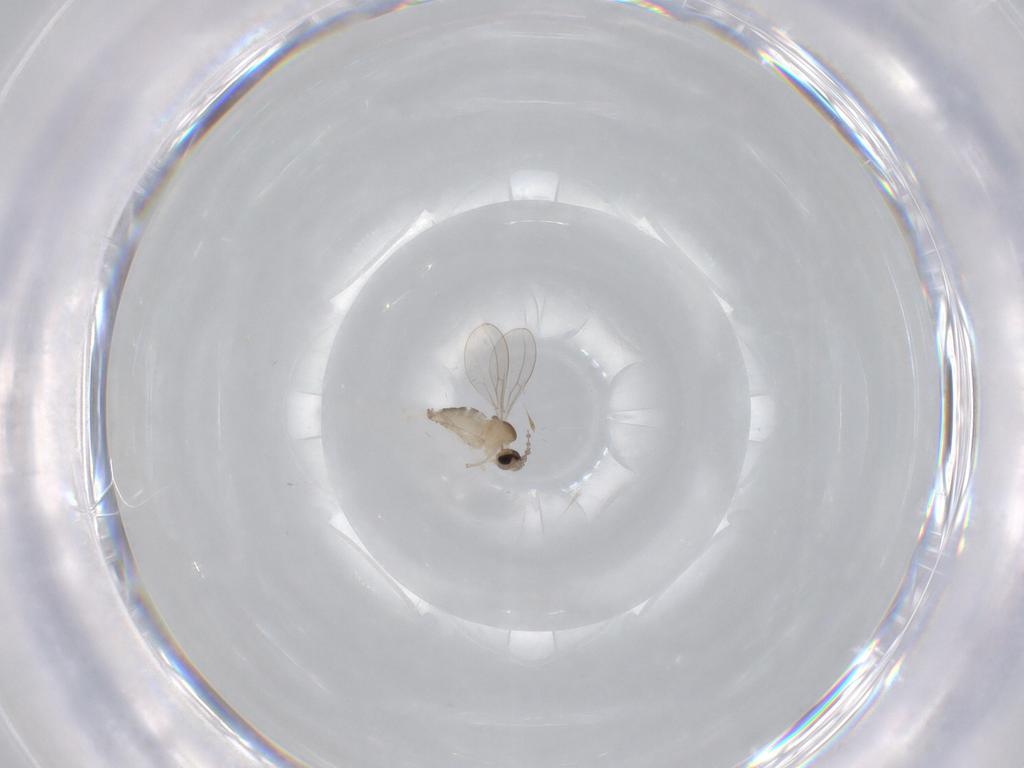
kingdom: Animalia
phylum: Arthropoda
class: Insecta
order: Diptera
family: Cecidomyiidae
